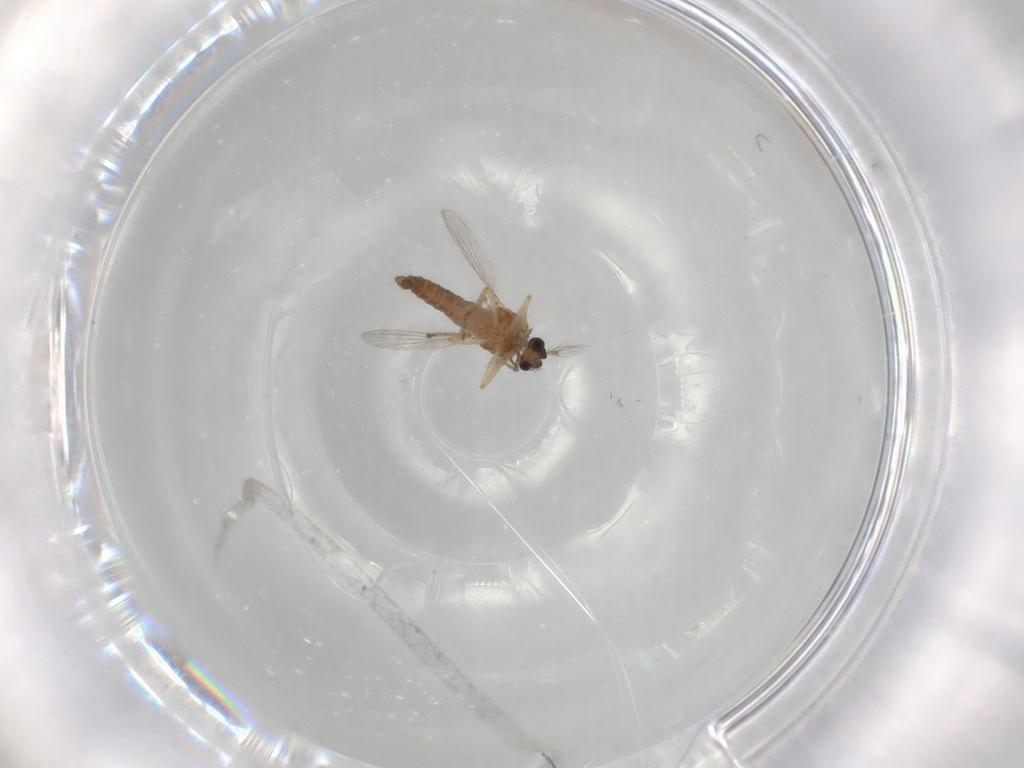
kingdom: Animalia
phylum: Arthropoda
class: Insecta
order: Diptera
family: Ceratopogonidae
